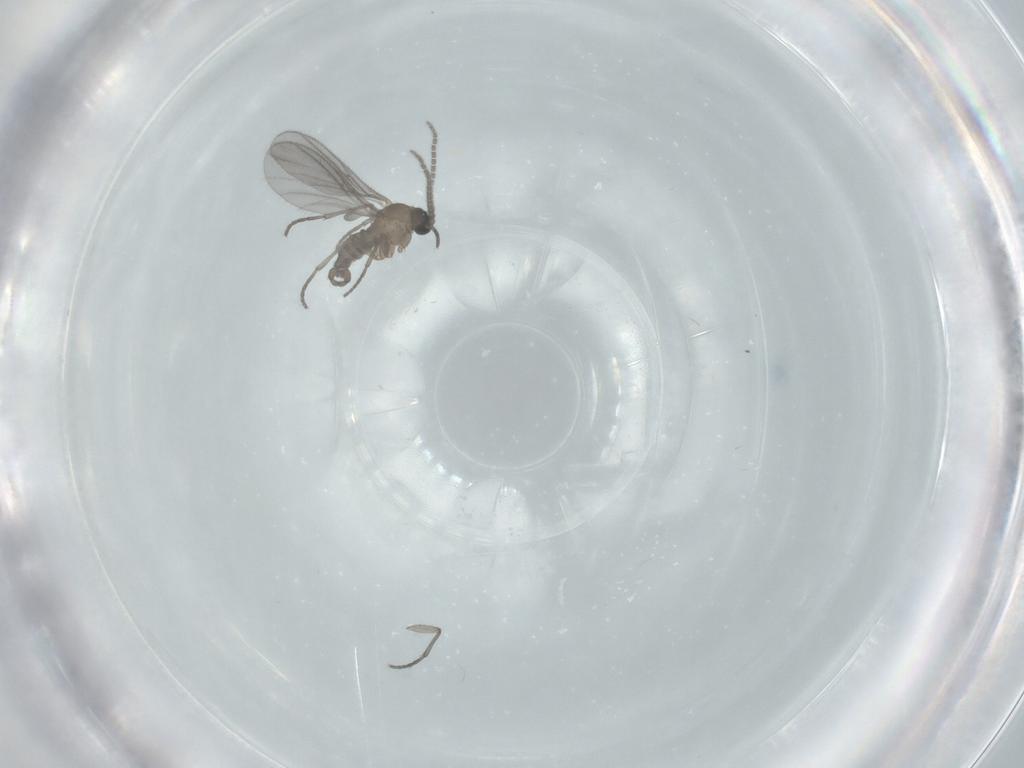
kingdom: Animalia
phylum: Arthropoda
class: Insecta
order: Diptera
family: Sciaridae
